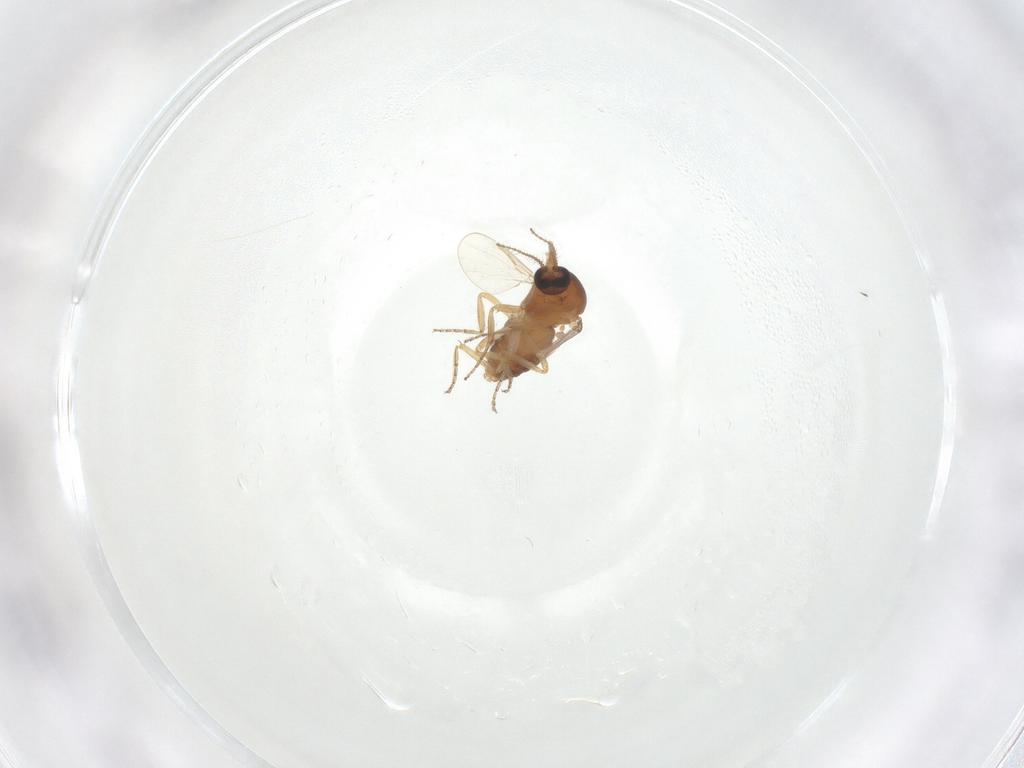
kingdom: Animalia
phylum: Arthropoda
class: Insecta
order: Diptera
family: Ceratopogonidae
